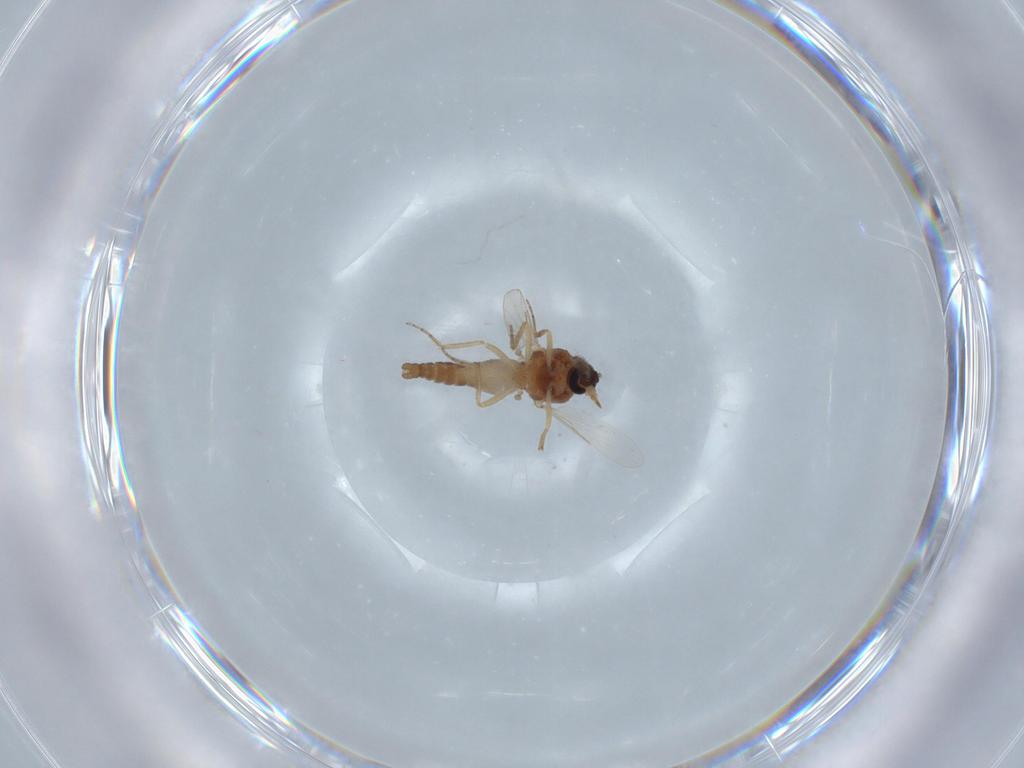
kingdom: Animalia
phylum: Arthropoda
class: Insecta
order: Diptera
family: Ceratopogonidae
